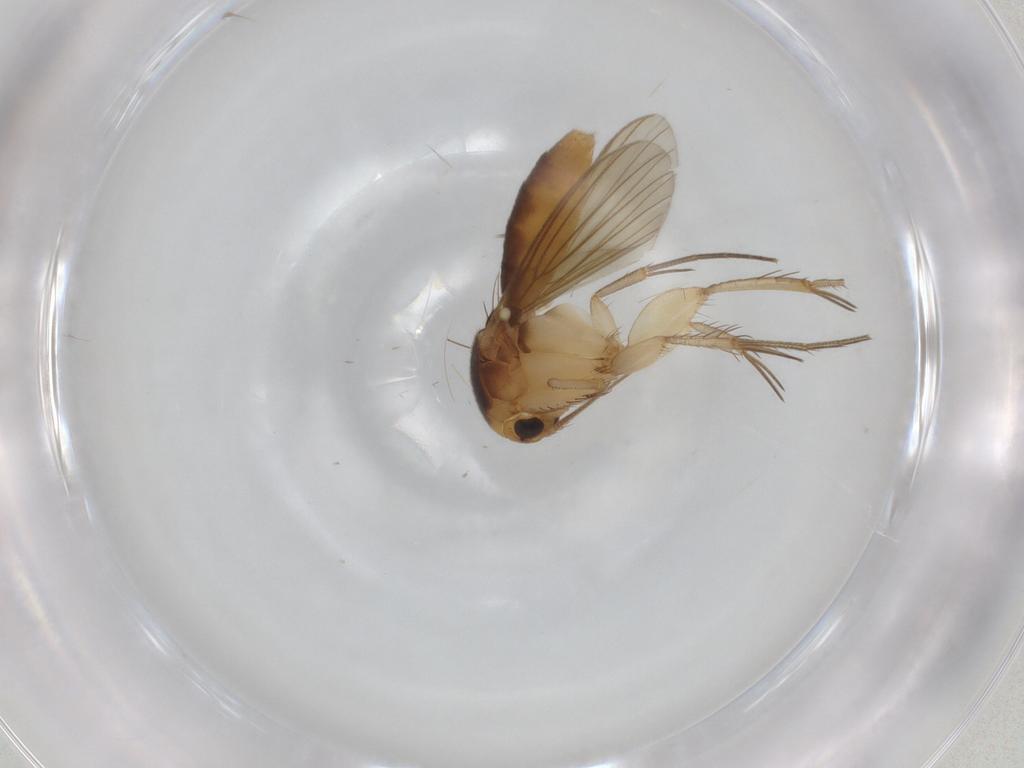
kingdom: Animalia
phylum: Arthropoda
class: Insecta
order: Diptera
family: Mycetophilidae
